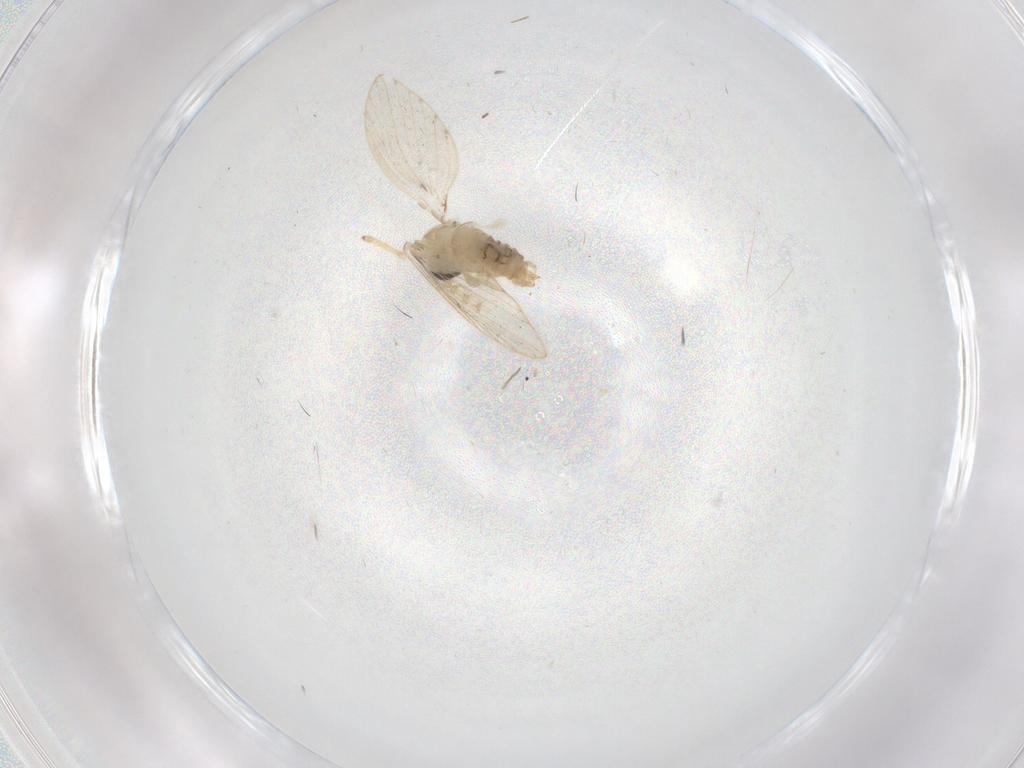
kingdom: Animalia
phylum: Arthropoda
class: Insecta
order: Diptera
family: Psychodidae
